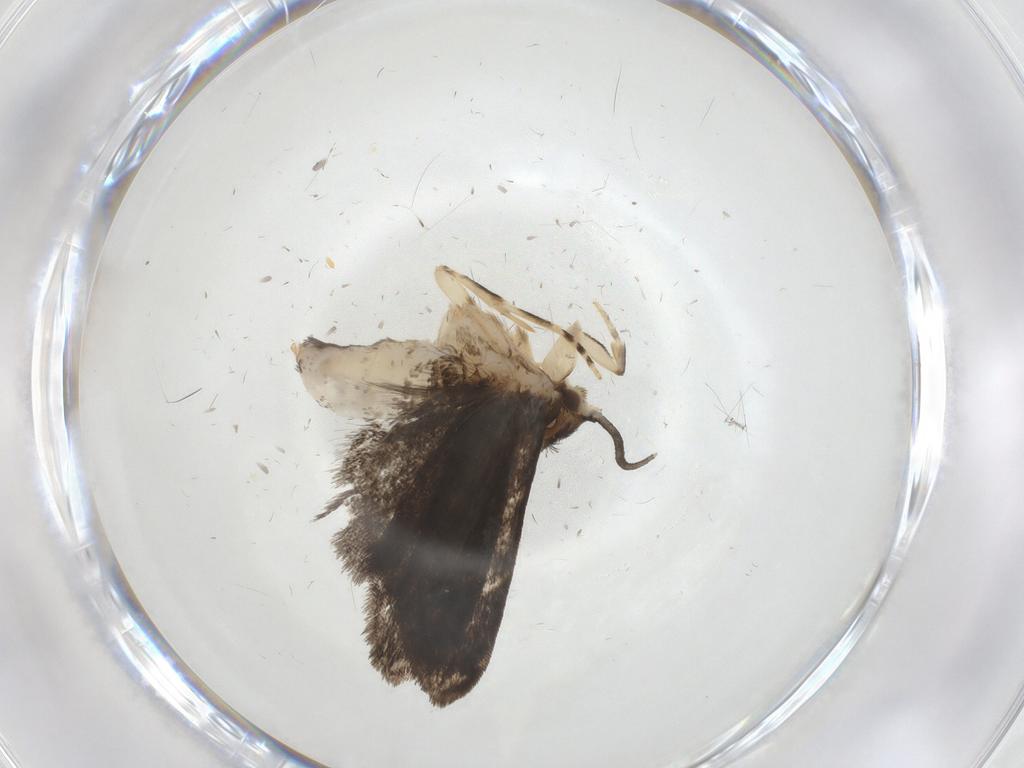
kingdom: Animalia
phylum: Arthropoda
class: Insecta
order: Lepidoptera
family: Dryadaulidae
